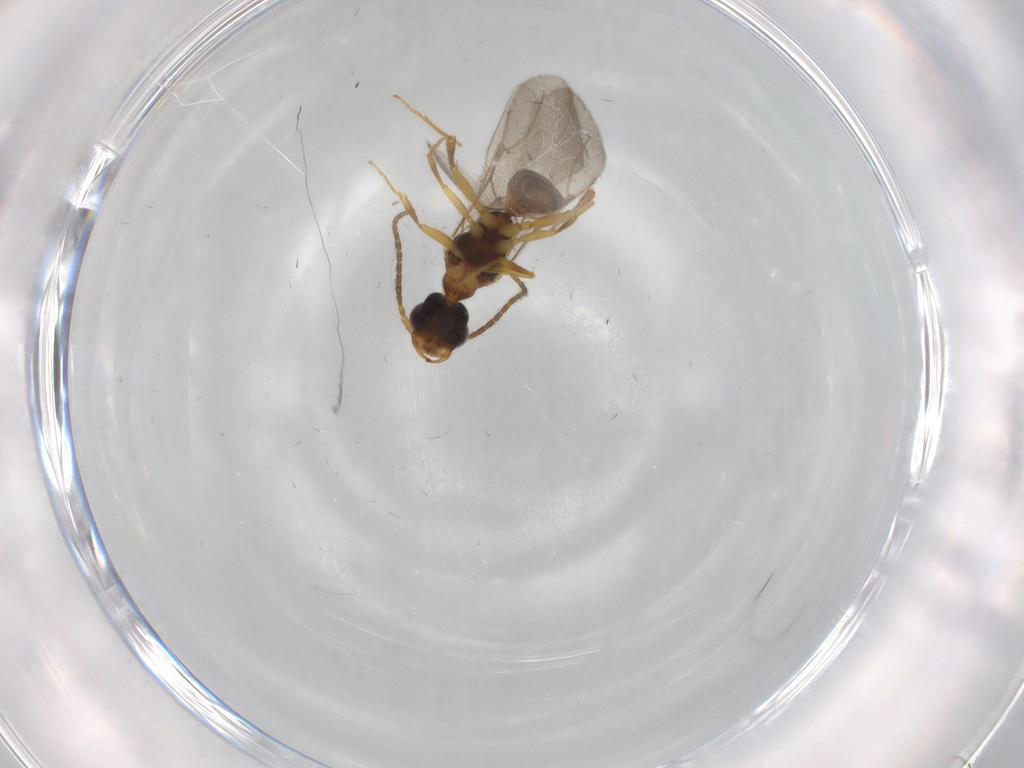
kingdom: Animalia
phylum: Arthropoda
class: Insecta
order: Hymenoptera
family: Bethylidae
